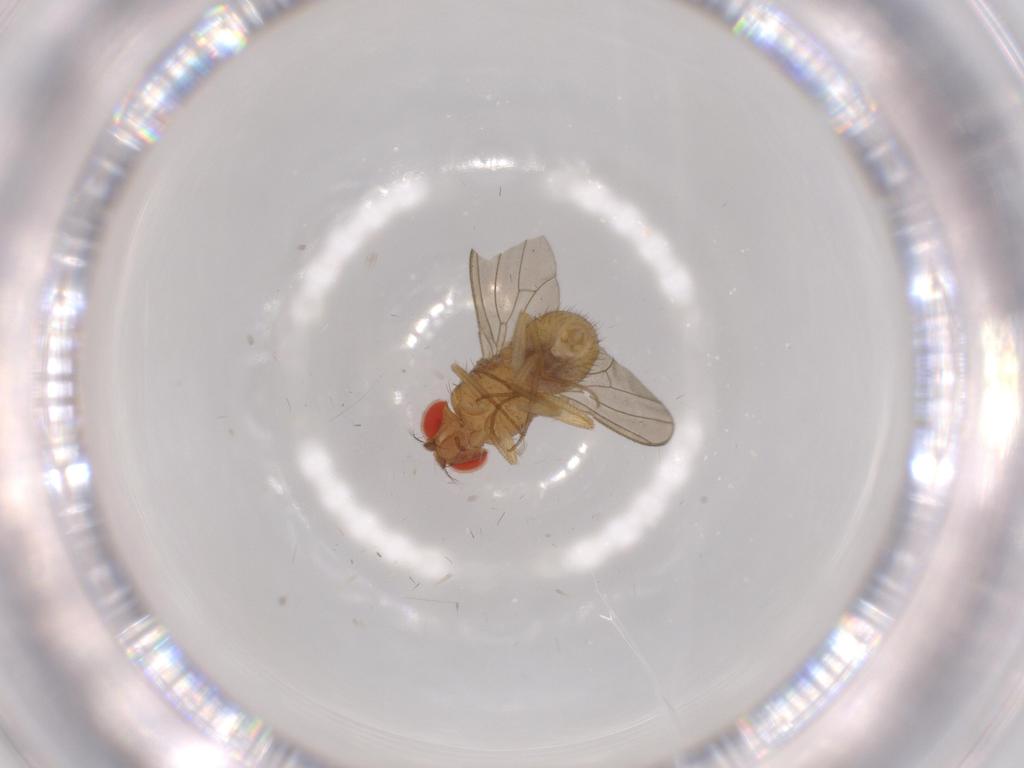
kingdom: Animalia
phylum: Arthropoda
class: Insecta
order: Diptera
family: Drosophilidae
